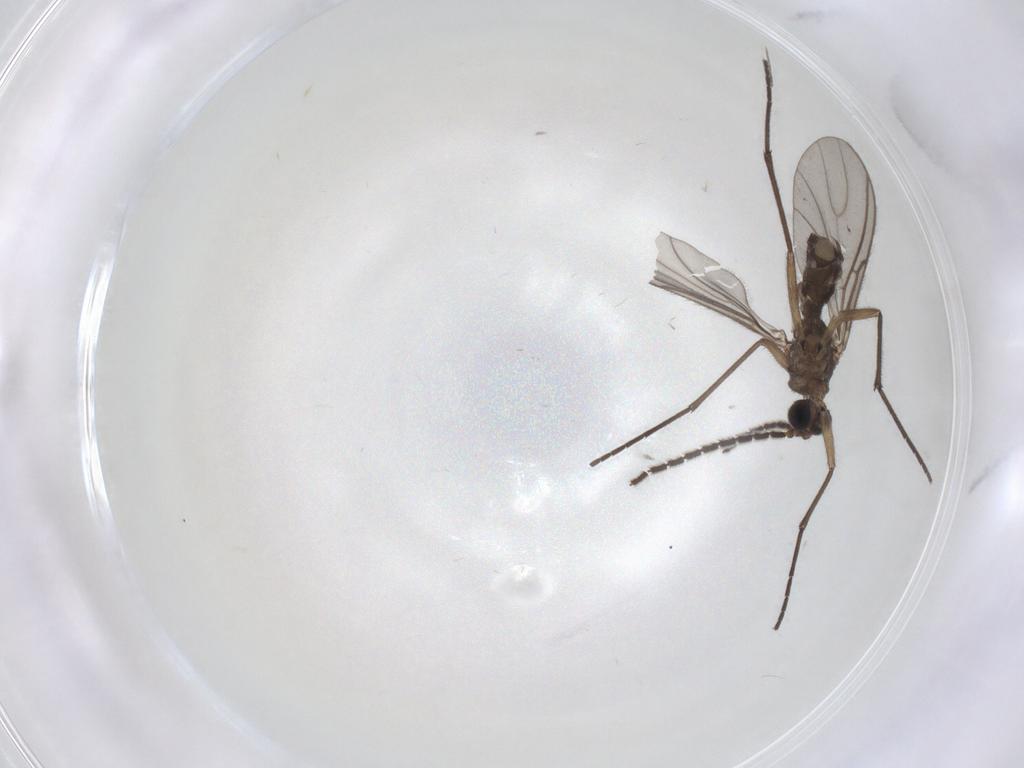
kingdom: Animalia
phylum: Arthropoda
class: Insecta
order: Diptera
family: Sciaridae
